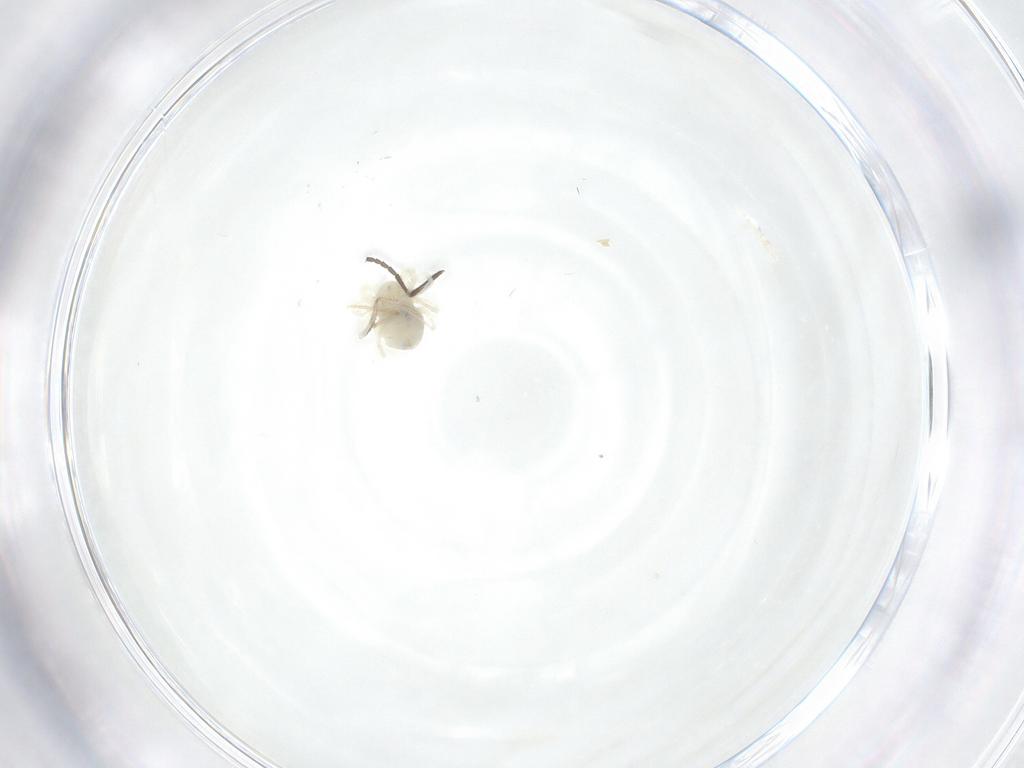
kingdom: Animalia
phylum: Arthropoda
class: Insecta
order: Diptera
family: Psychodidae
